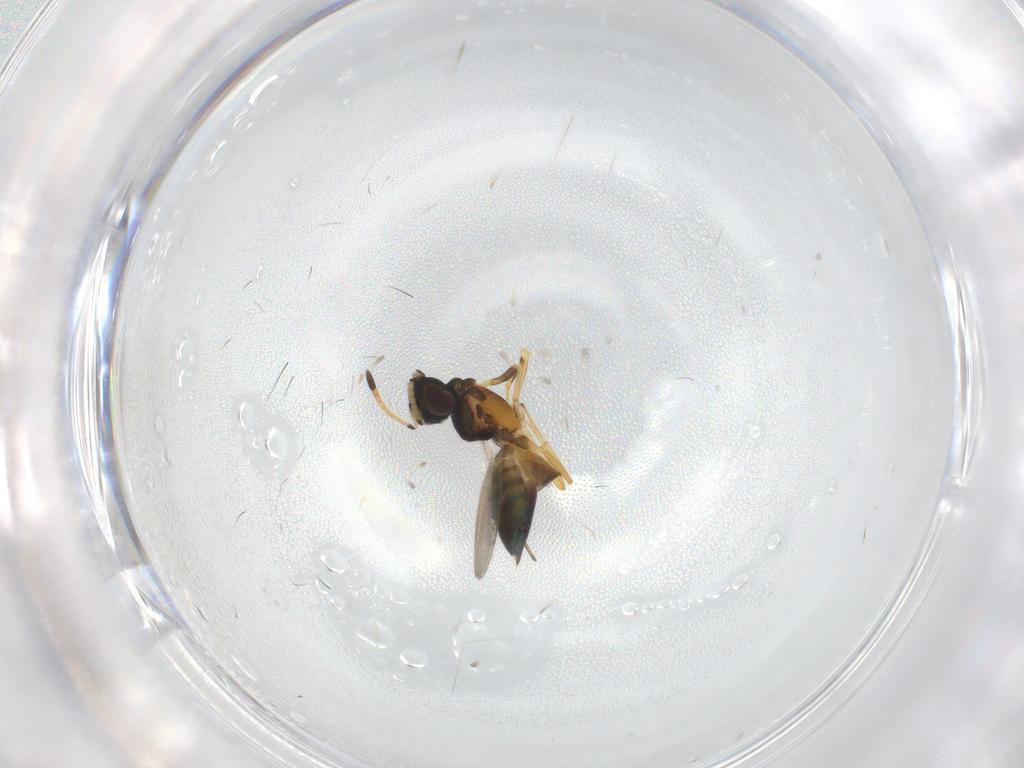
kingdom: Animalia
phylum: Arthropoda
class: Insecta
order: Hymenoptera
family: Eupelmidae
